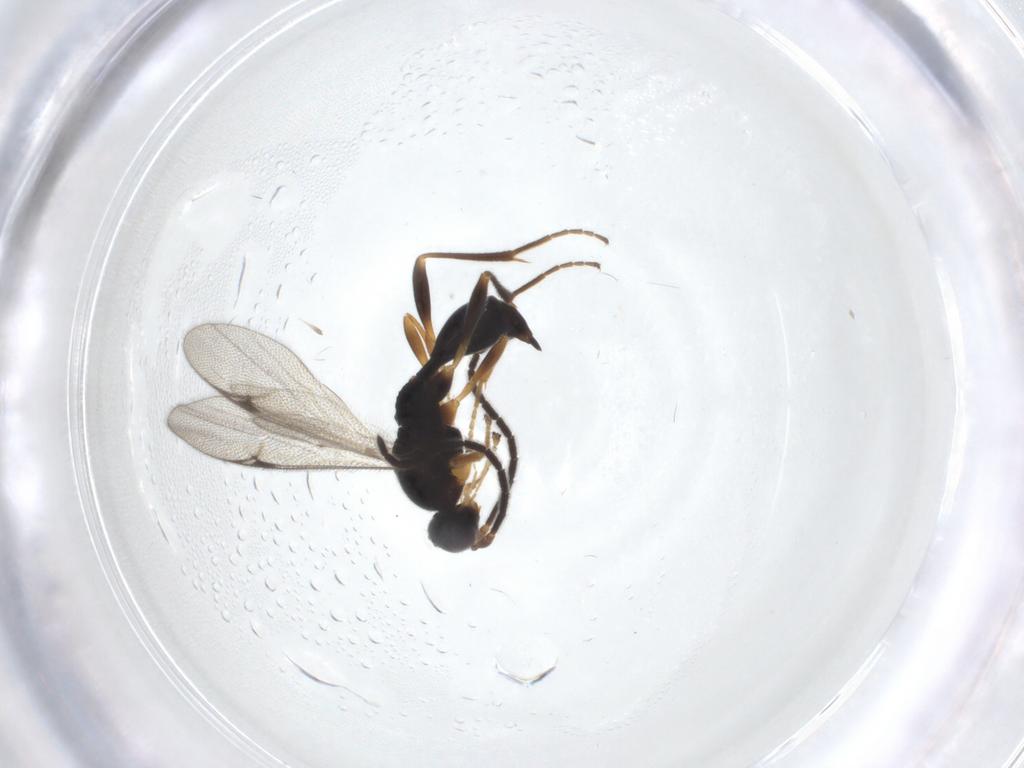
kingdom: Animalia
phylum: Arthropoda
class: Insecta
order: Hymenoptera
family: Proctotrupidae
